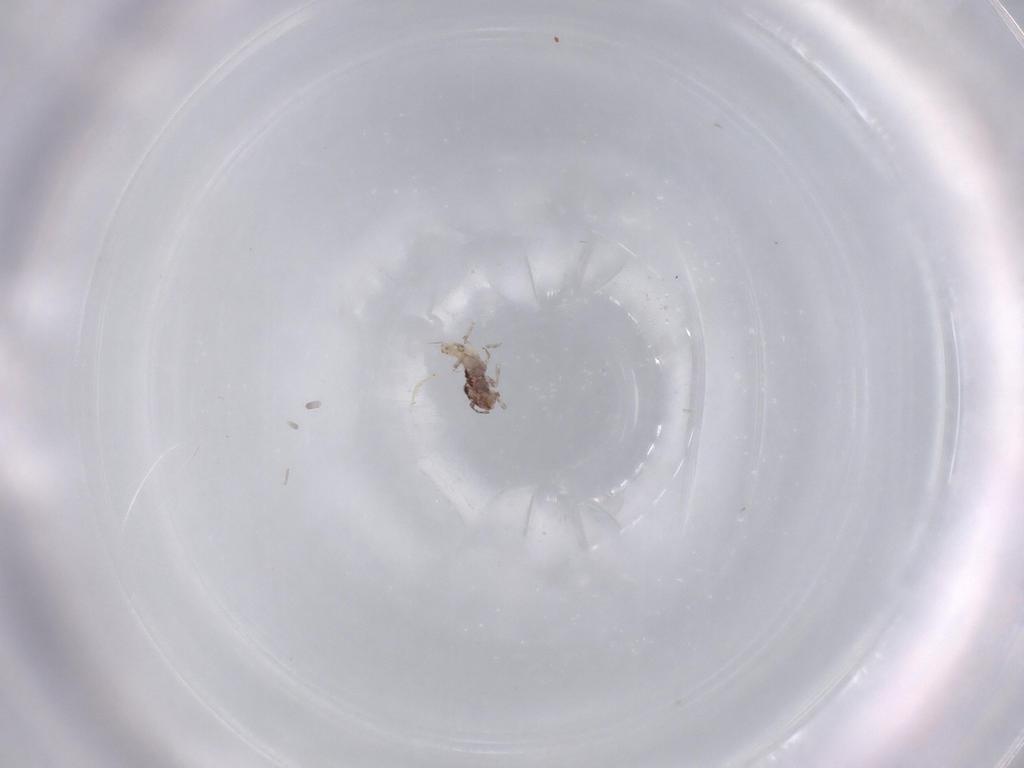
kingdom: Animalia
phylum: Arthropoda
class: Insecta
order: Psocodea
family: Lepidopsocidae
